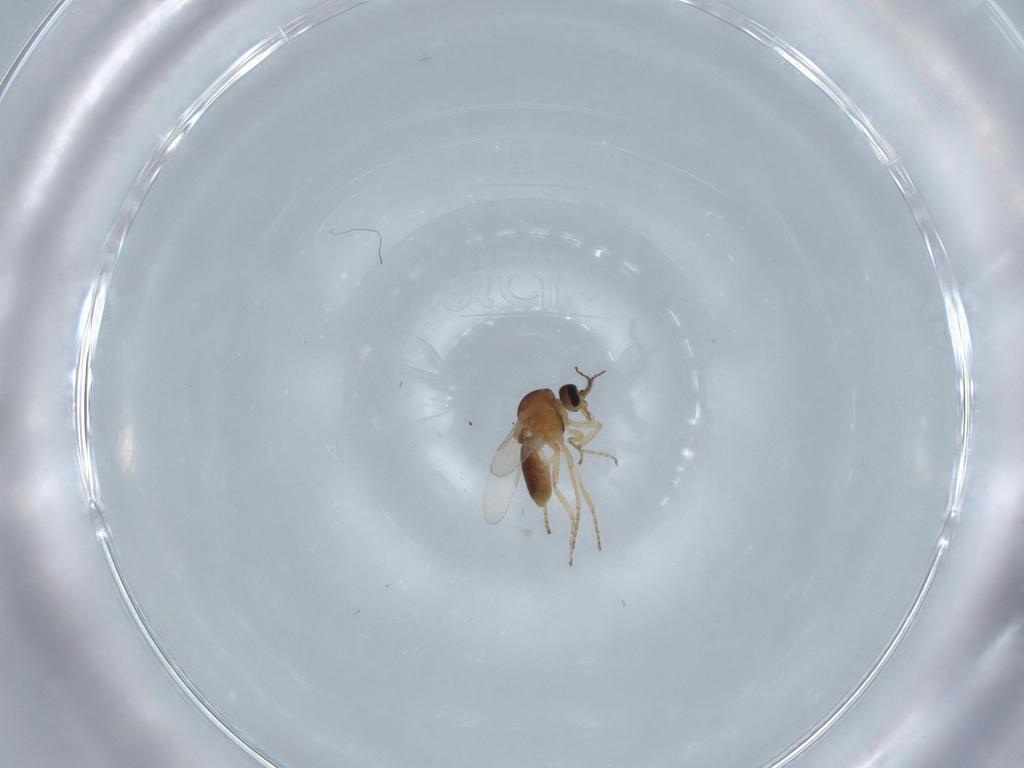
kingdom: Animalia
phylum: Arthropoda
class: Insecta
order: Diptera
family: Ceratopogonidae
